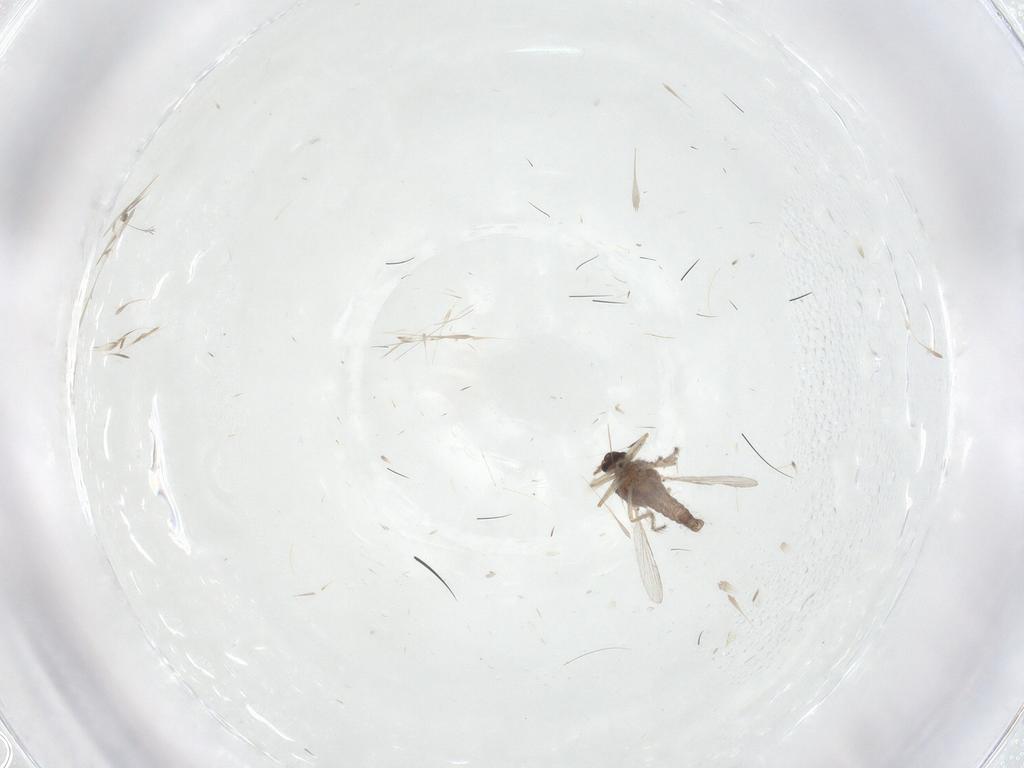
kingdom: Animalia
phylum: Arthropoda
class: Insecta
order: Diptera
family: Ceratopogonidae
